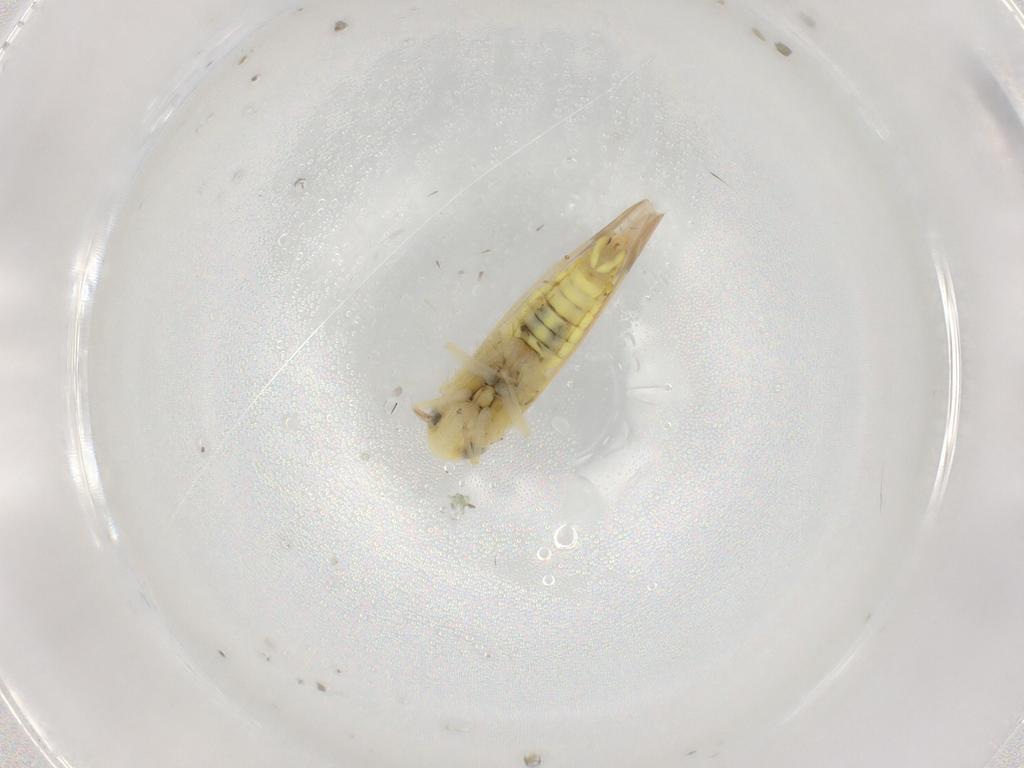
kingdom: Animalia
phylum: Arthropoda
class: Insecta
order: Hemiptera
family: Cicadellidae
